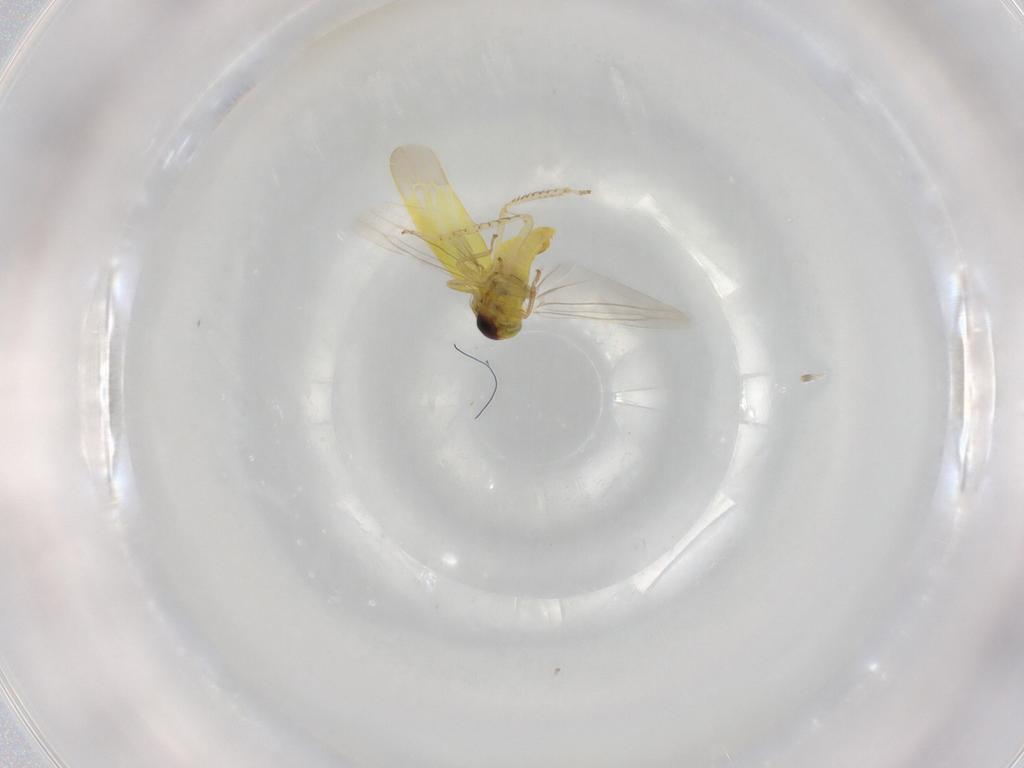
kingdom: Animalia
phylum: Arthropoda
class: Insecta
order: Hemiptera
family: Cicadellidae
